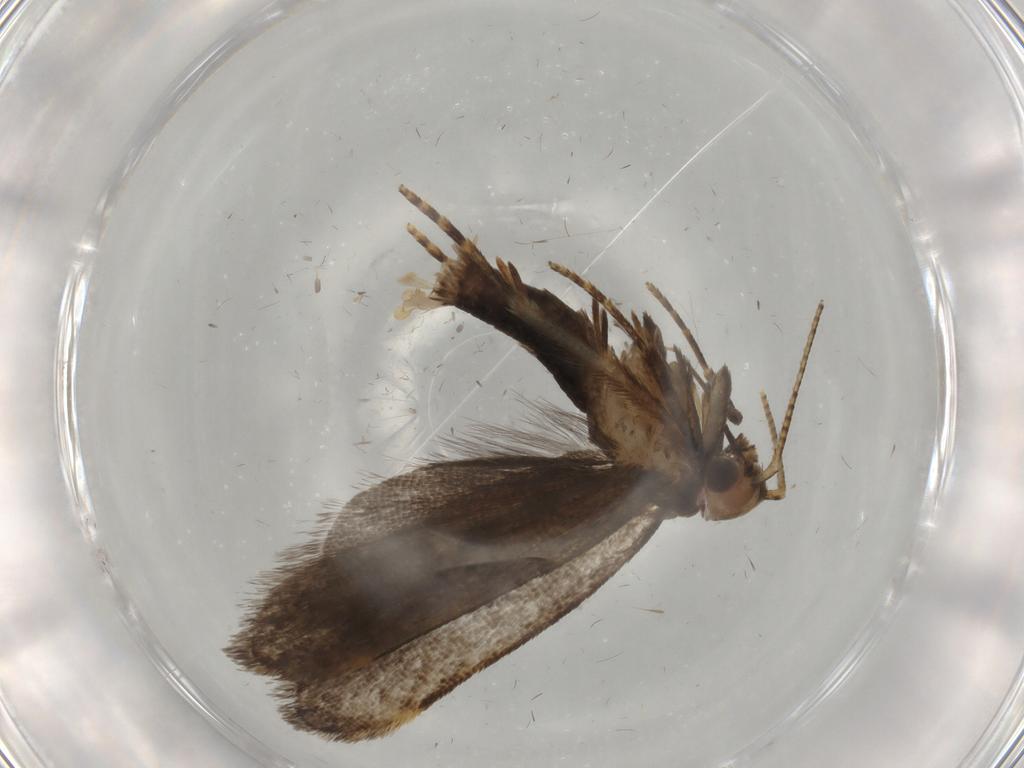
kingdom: Animalia
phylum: Arthropoda
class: Insecta
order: Lepidoptera
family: Gelechiidae
